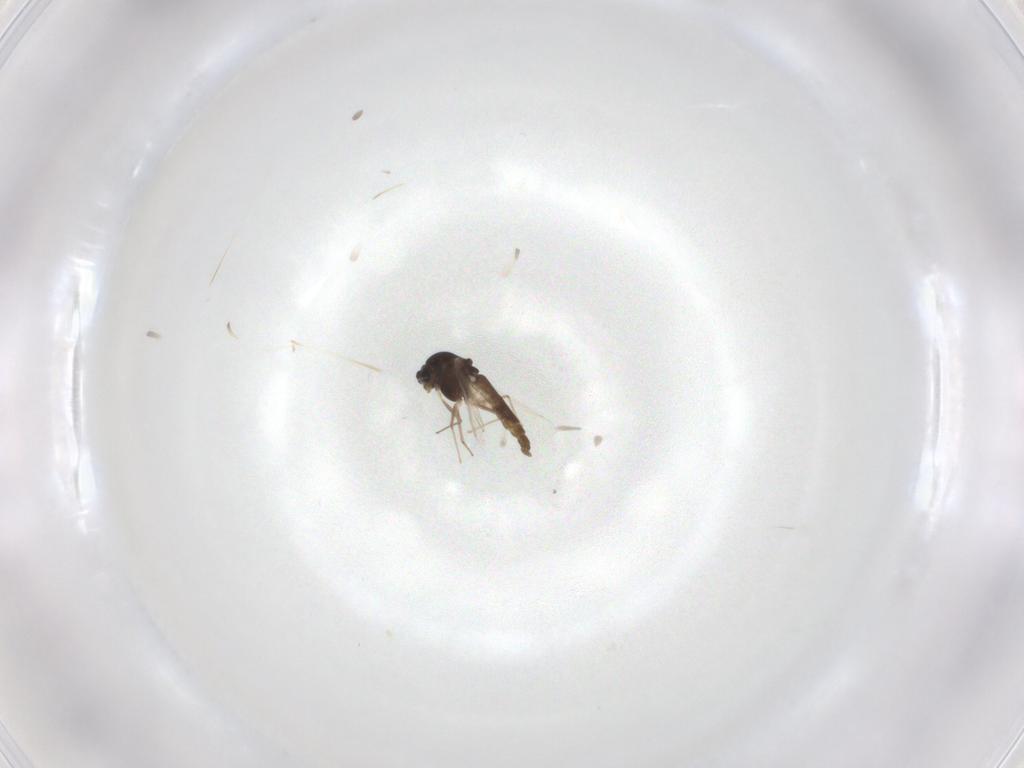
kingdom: Animalia
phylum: Arthropoda
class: Insecta
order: Diptera
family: Chironomidae
